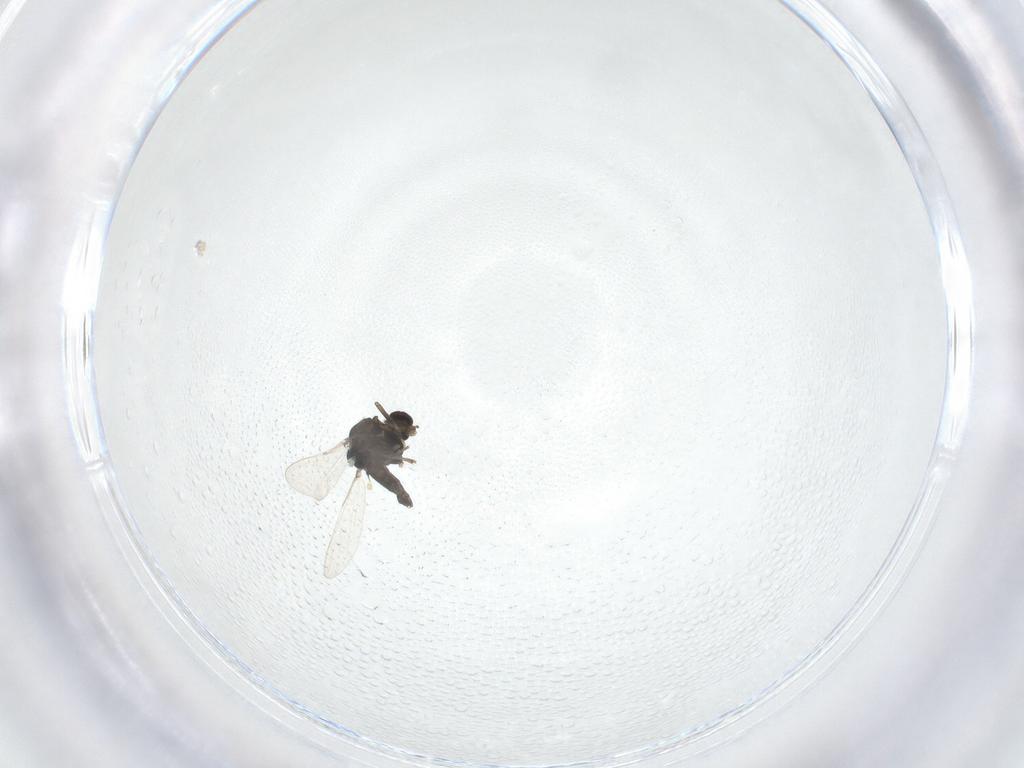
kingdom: Animalia
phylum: Arthropoda
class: Insecta
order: Diptera
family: Chironomidae
